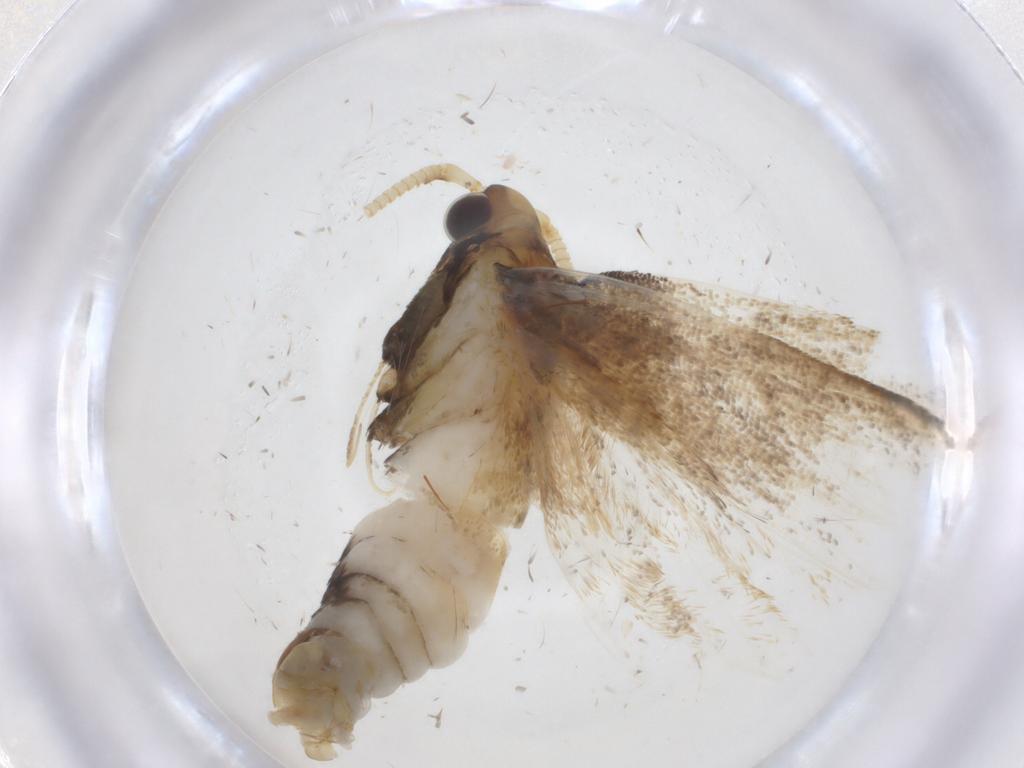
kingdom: Animalia
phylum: Arthropoda
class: Insecta
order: Lepidoptera
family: Lecithoceridae
